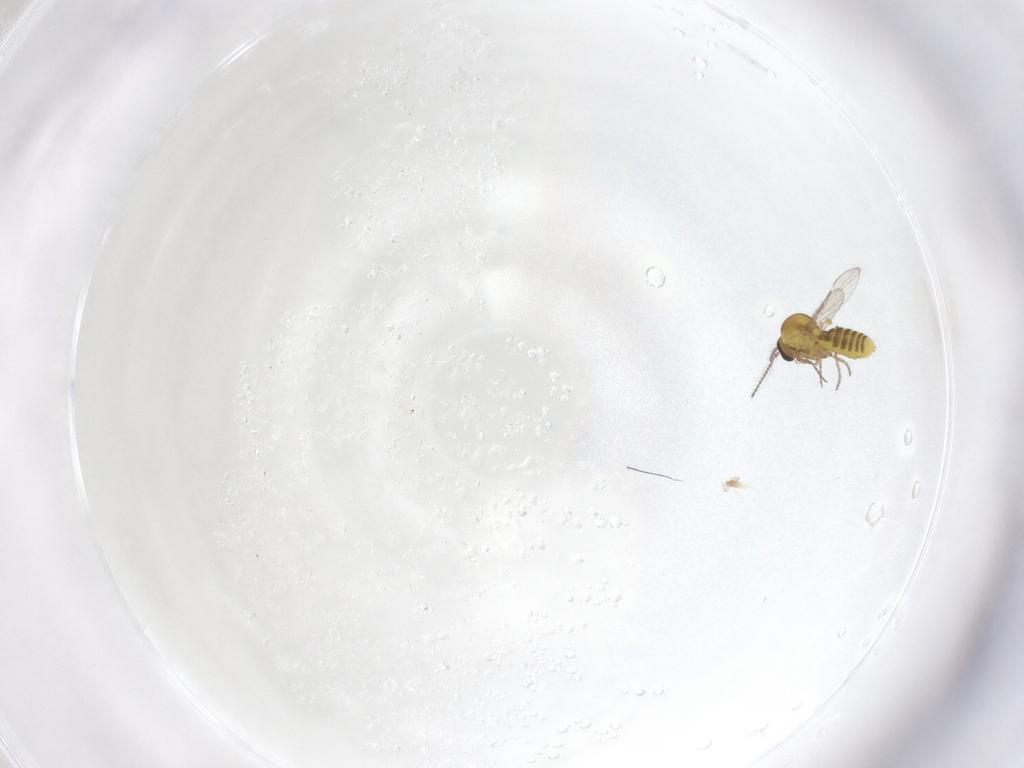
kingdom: Animalia
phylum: Arthropoda
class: Insecta
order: Diptera
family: Ceratopogonidae
